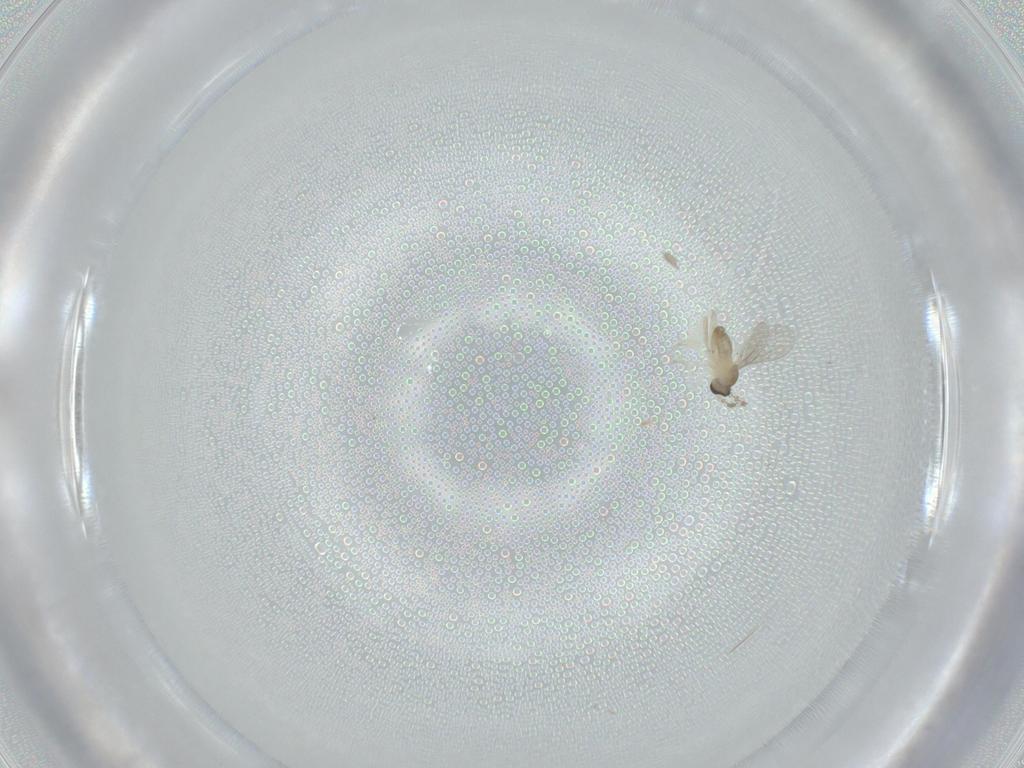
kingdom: Animalia
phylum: Arthropoda
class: Insecta
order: Diptera
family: Cecidomyiidae
